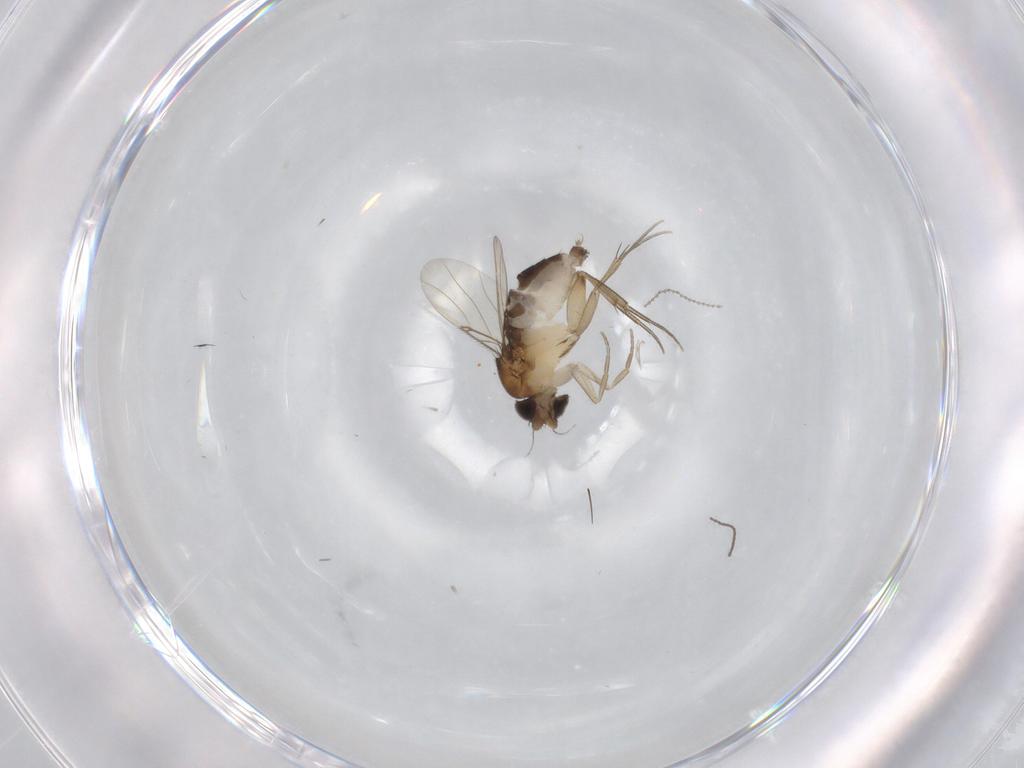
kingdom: Animalia
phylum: Arthropoda
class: Insecta
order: Diptera
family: Phoridae
